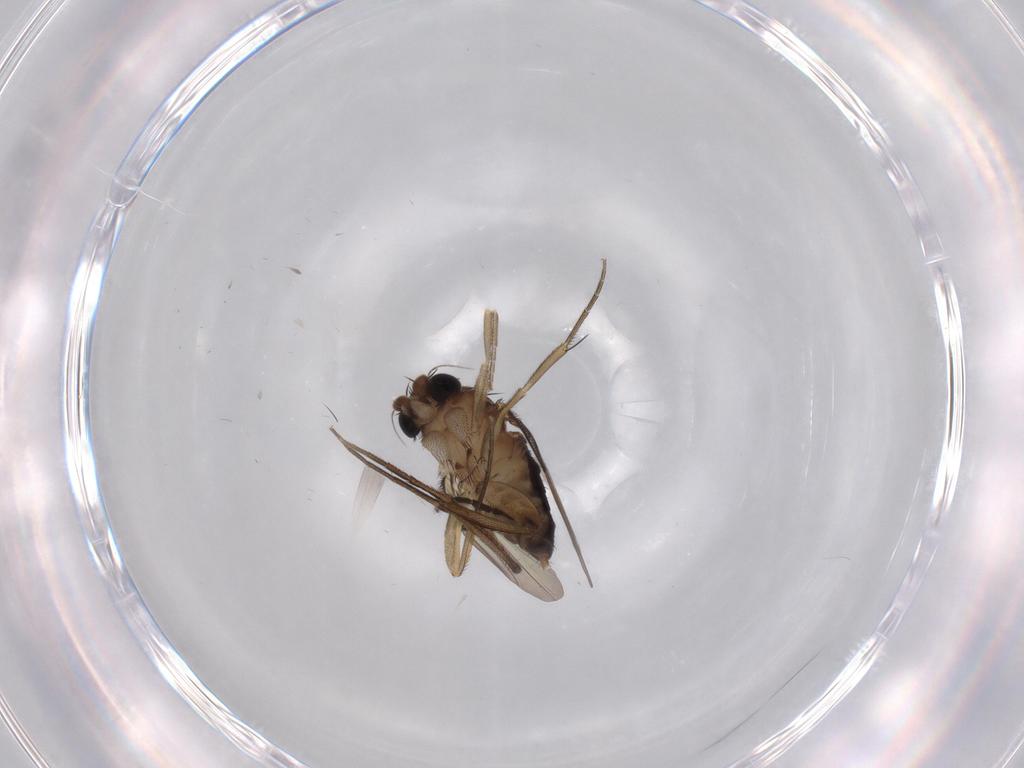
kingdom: Animalia
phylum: Arthropoda
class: Insecta
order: Diptera
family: Phoridae
